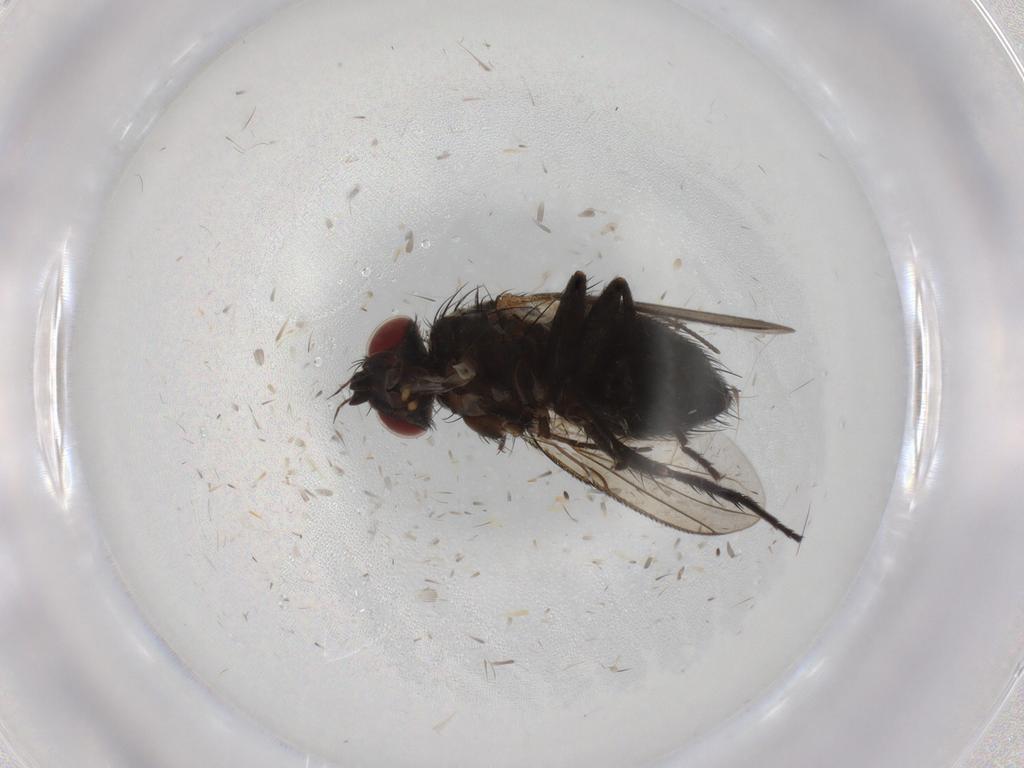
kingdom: Animalia
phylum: Arthropoda
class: Insecta
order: Diptera
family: Tachinidae
